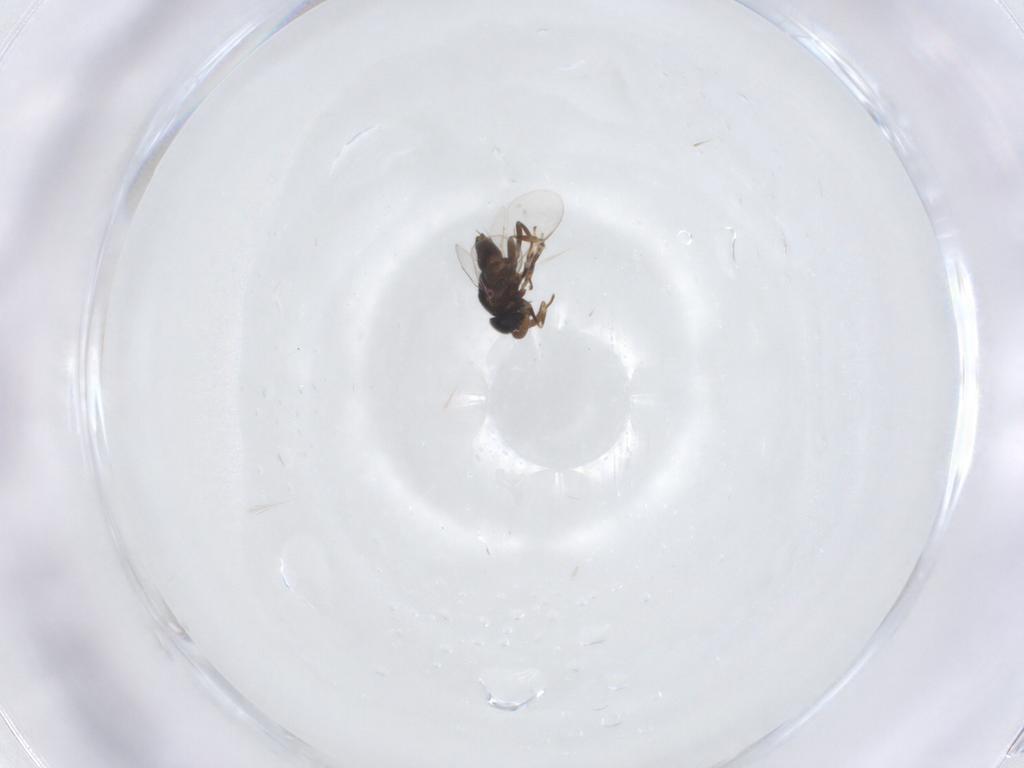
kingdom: Animalia
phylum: Arthropoda
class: Insecta
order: Hymenoptera
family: Encyrtidae
